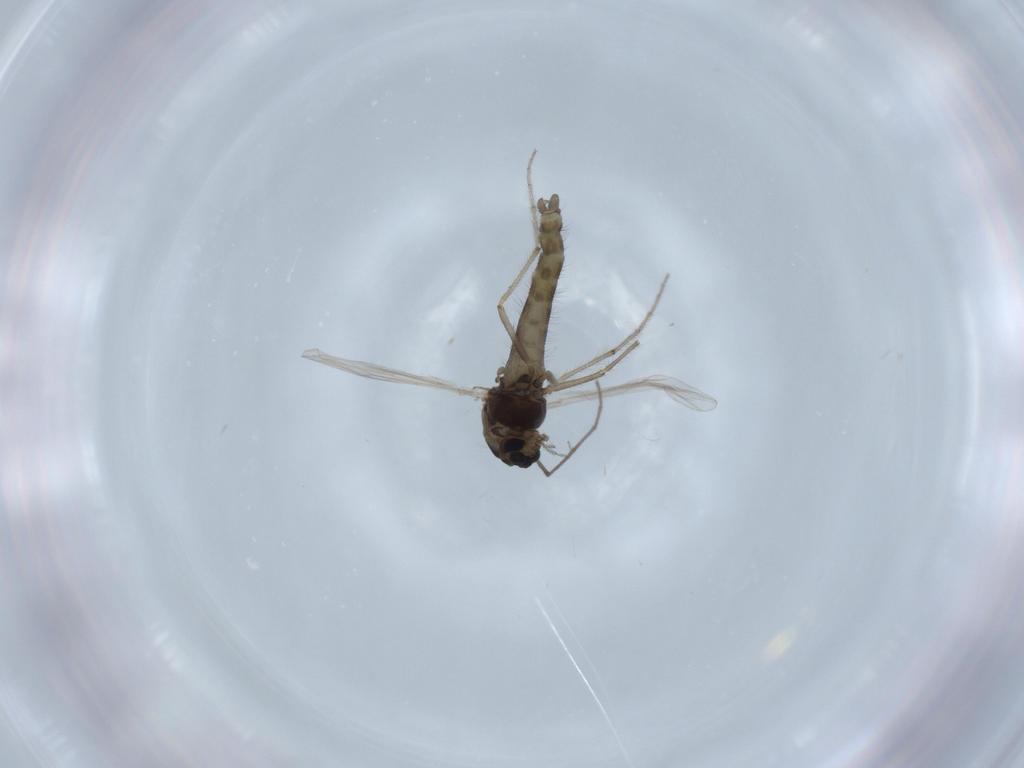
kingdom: Animalia
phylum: Arthropoda
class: Insecta
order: Diptera
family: Chironomidae
